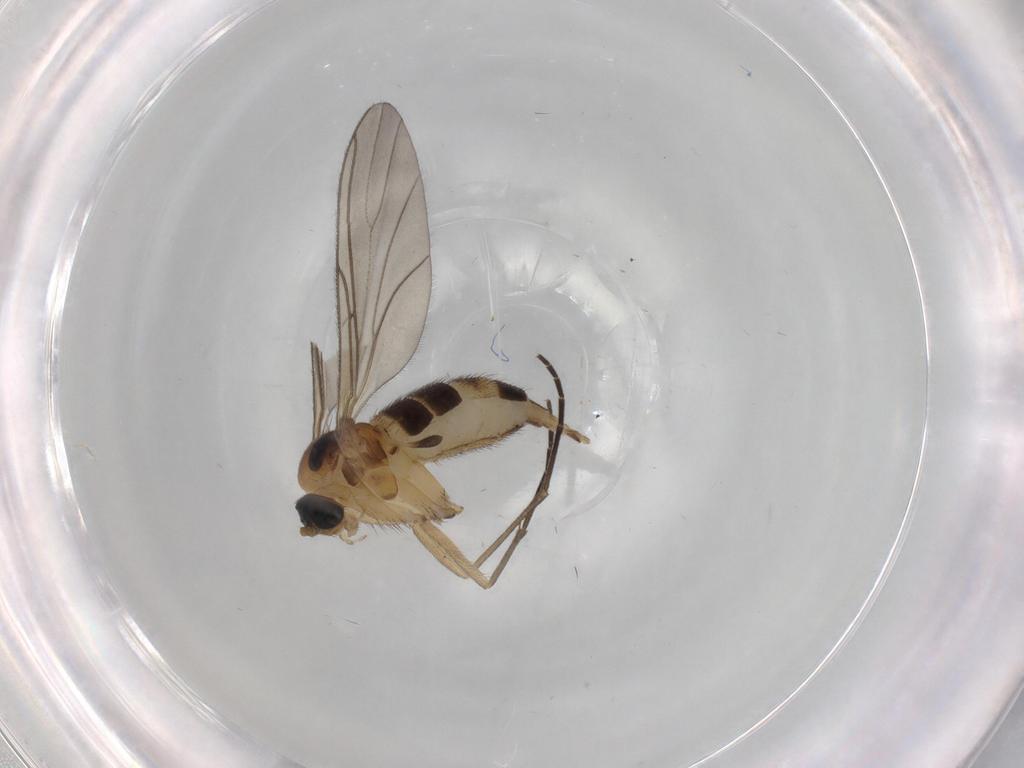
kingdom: Animalia
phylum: Arthropoda
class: Insecta
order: Diptera
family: Sciaridae
